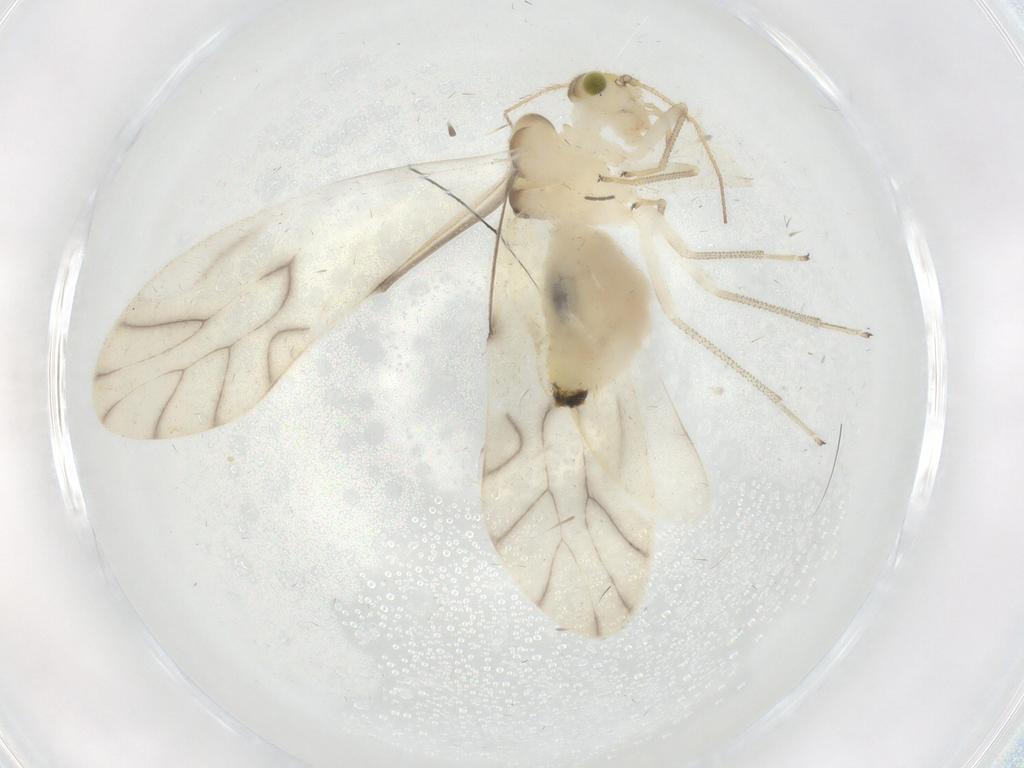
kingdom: Animalia
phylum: Arthropoda
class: Insecta
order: Psocodea
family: Caeciliusidae
